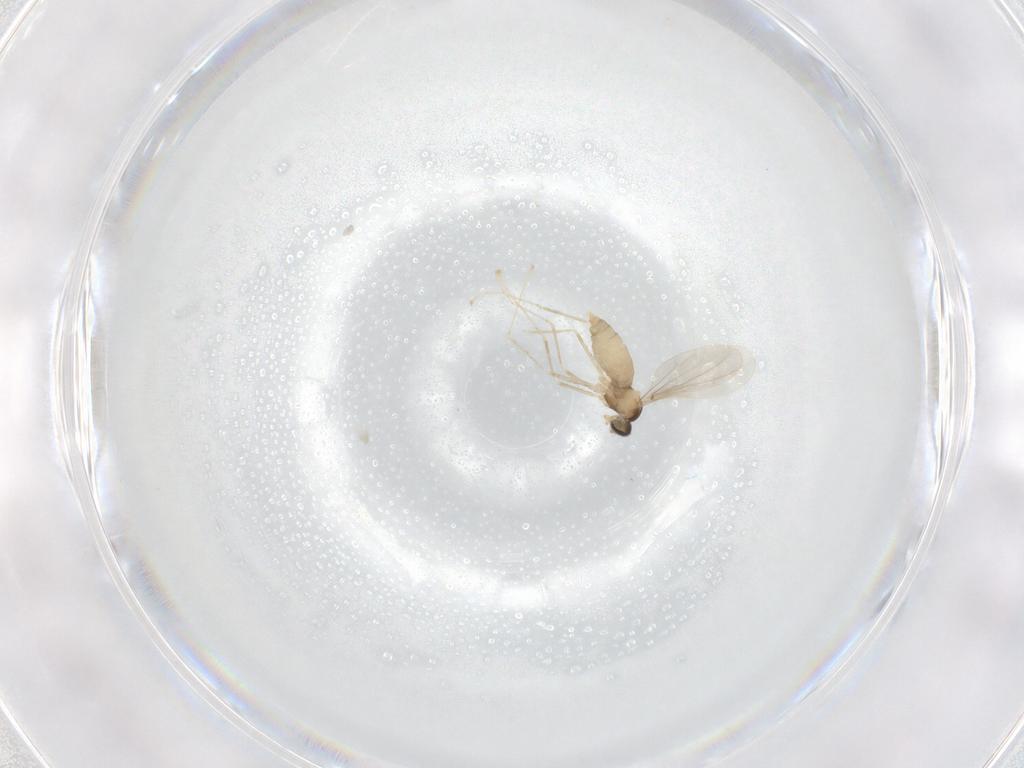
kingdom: Animalia
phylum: Arthropoda
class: Insecta
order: Diptera
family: Cecidomyiidae
